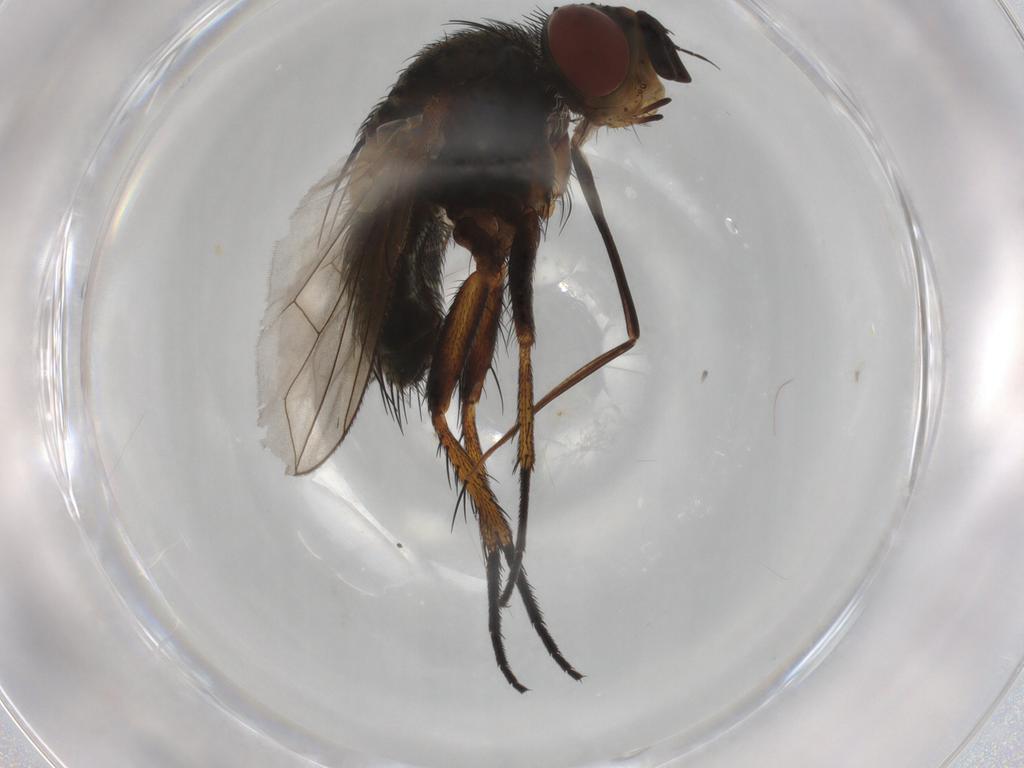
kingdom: Animalia
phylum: Arthropoda
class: Insecta
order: Diptera
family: Tachinidae
